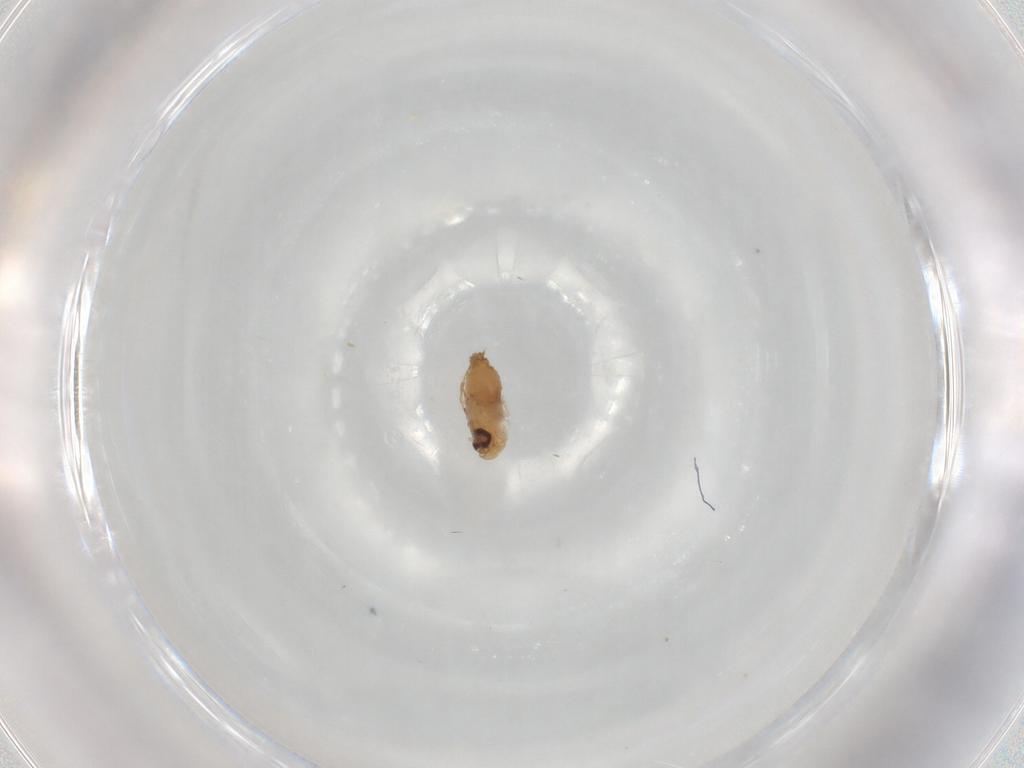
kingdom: Animalia
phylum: Arthropoda
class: Insecta
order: Diptera
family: Psychodidae
